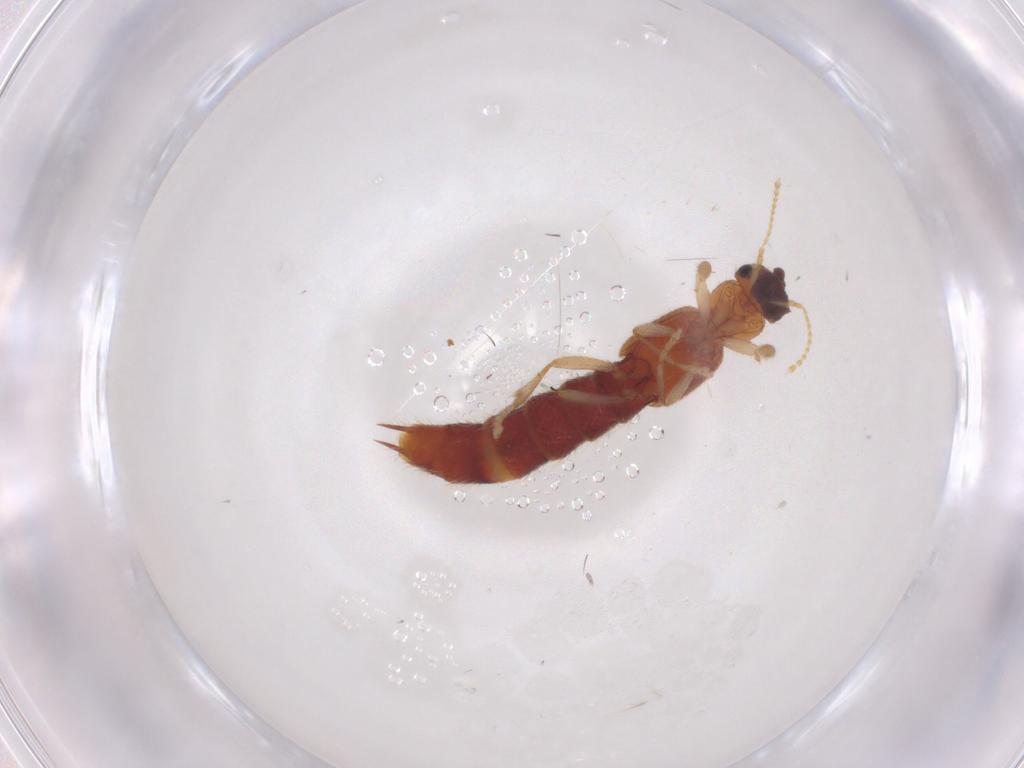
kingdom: Animalia
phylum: Arthropoda
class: Insecta
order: Coleoptera
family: Staphylinidae
